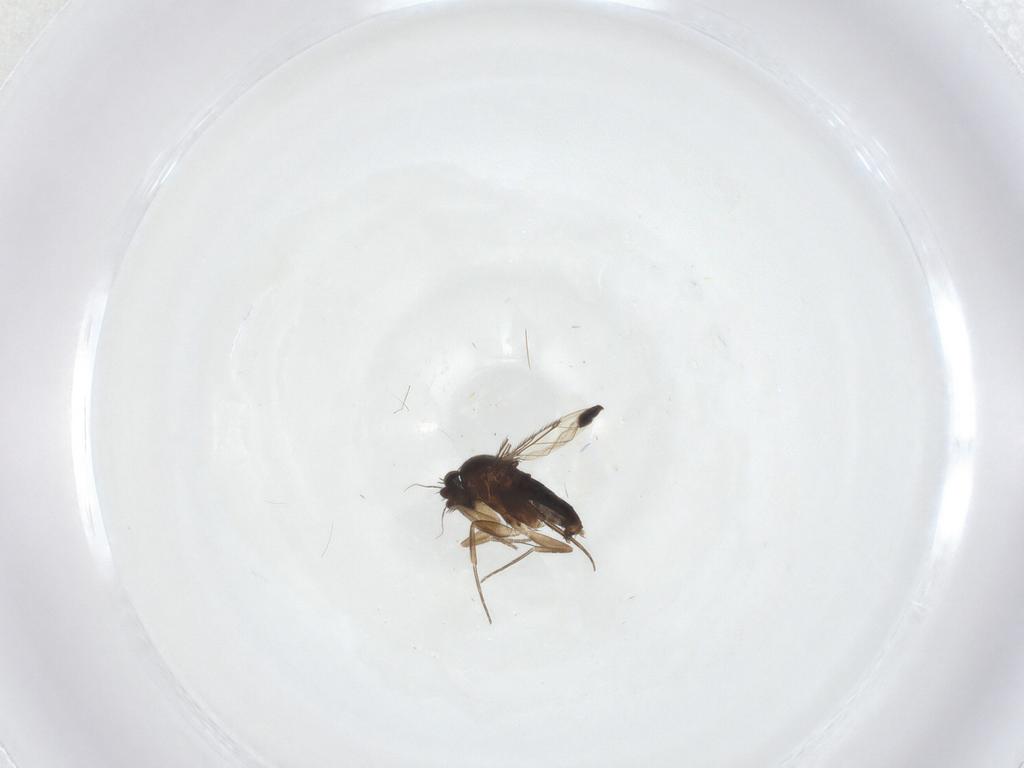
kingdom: Animalia
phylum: Arthropoda
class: Insecta
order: Diptera
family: Phoridae
